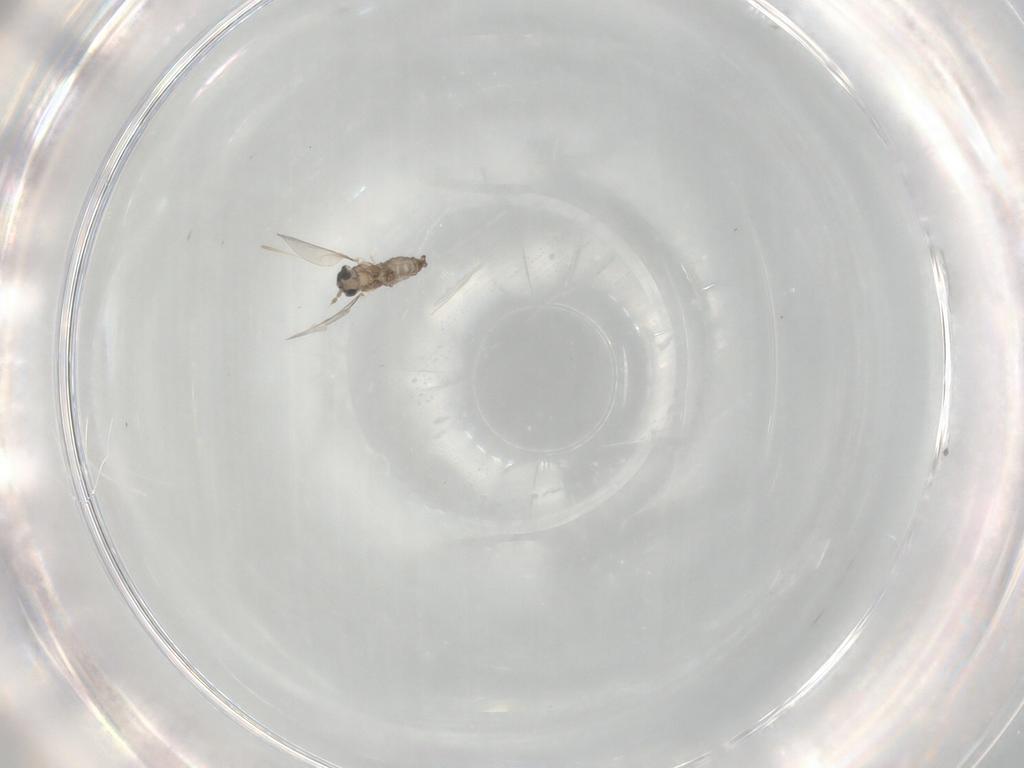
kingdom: Animalia
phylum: Arthropoda
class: Insecta
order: Diptera
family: Cecidomyiidae
